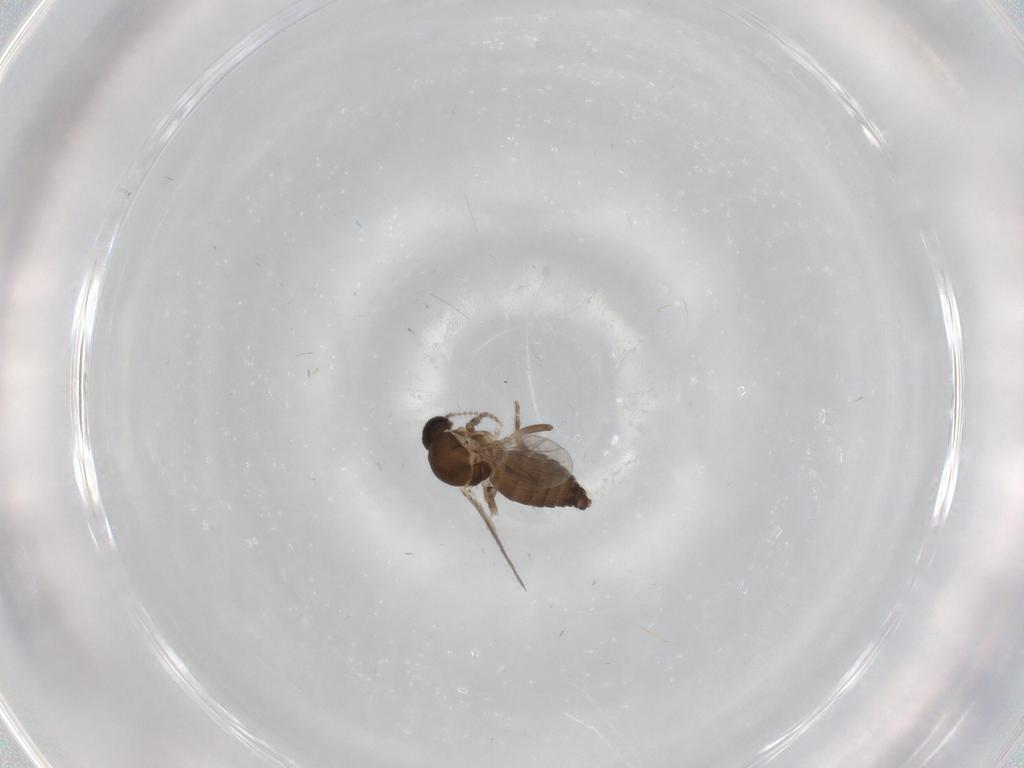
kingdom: Animalia
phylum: Arthropoda
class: Insecta
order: Diptera
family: Ceratopogonidae
